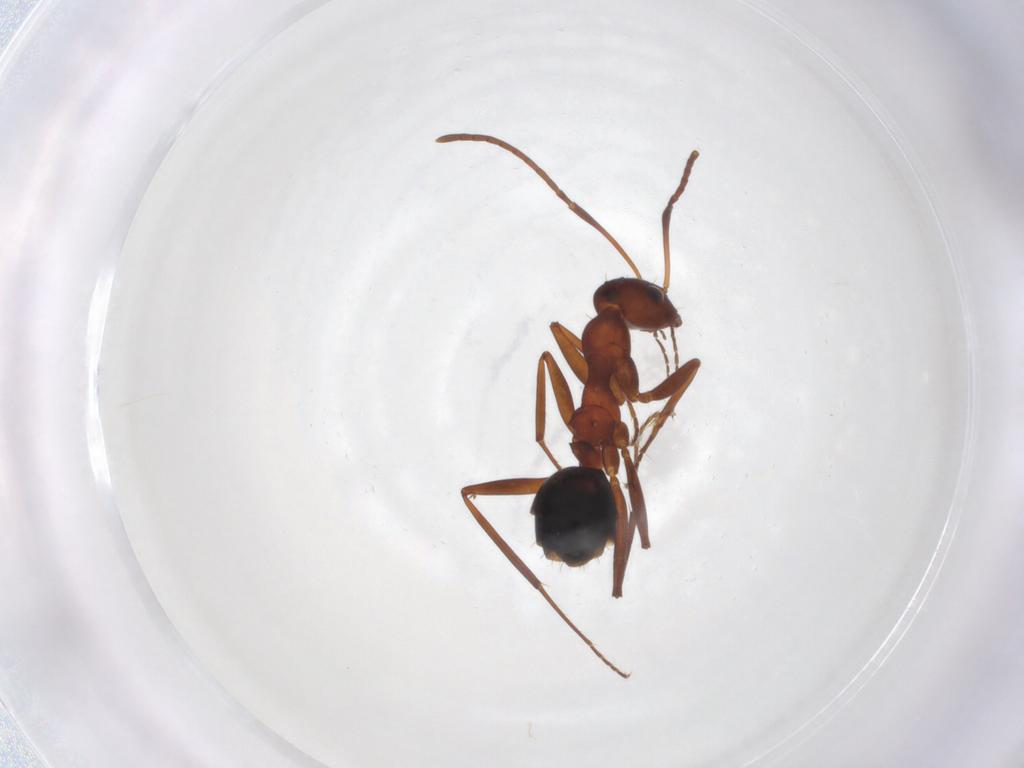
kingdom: Animalia
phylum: Arthropoda
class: Insecta
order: Hymenoptera
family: Formicidae
